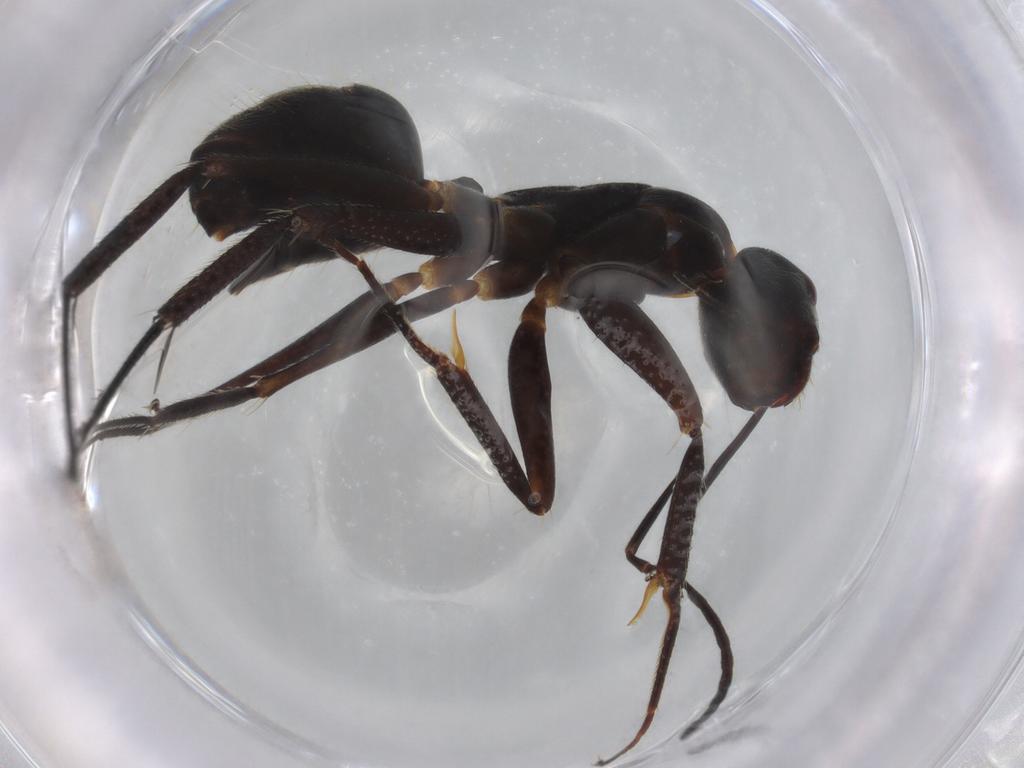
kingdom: Animalia
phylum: Arthropoda
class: Insecta
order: Hymenoptera
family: Formicidae
